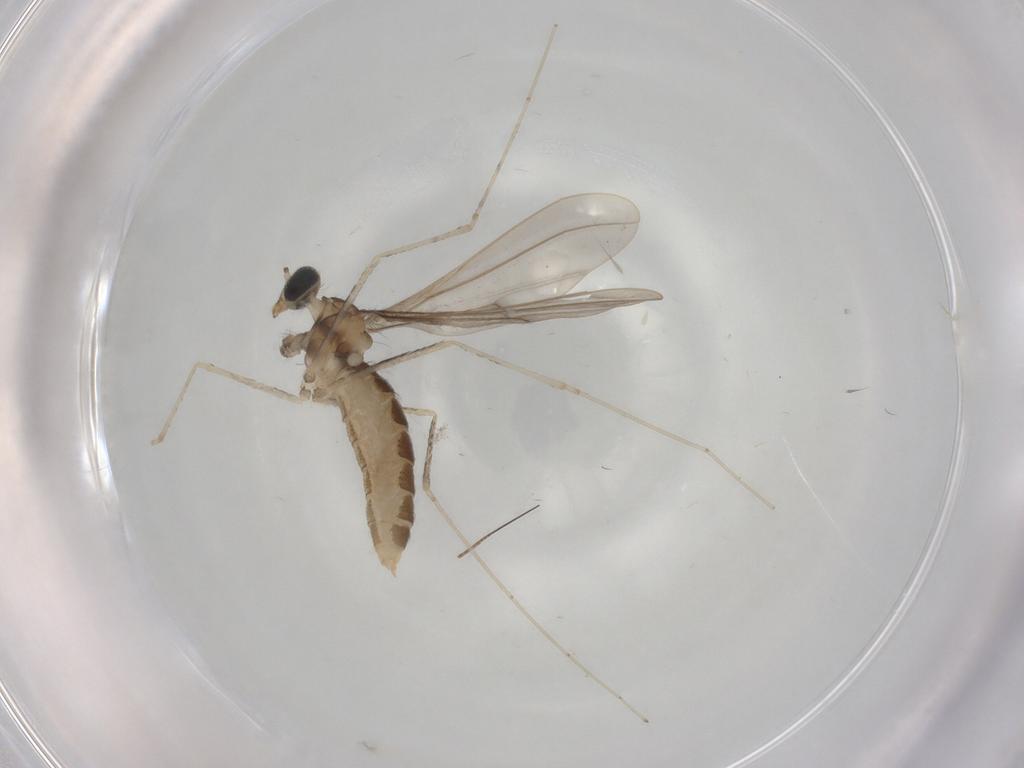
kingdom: Animalia
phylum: Arthropoda
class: Insecta
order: Diptera
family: Cecidomyiidae
